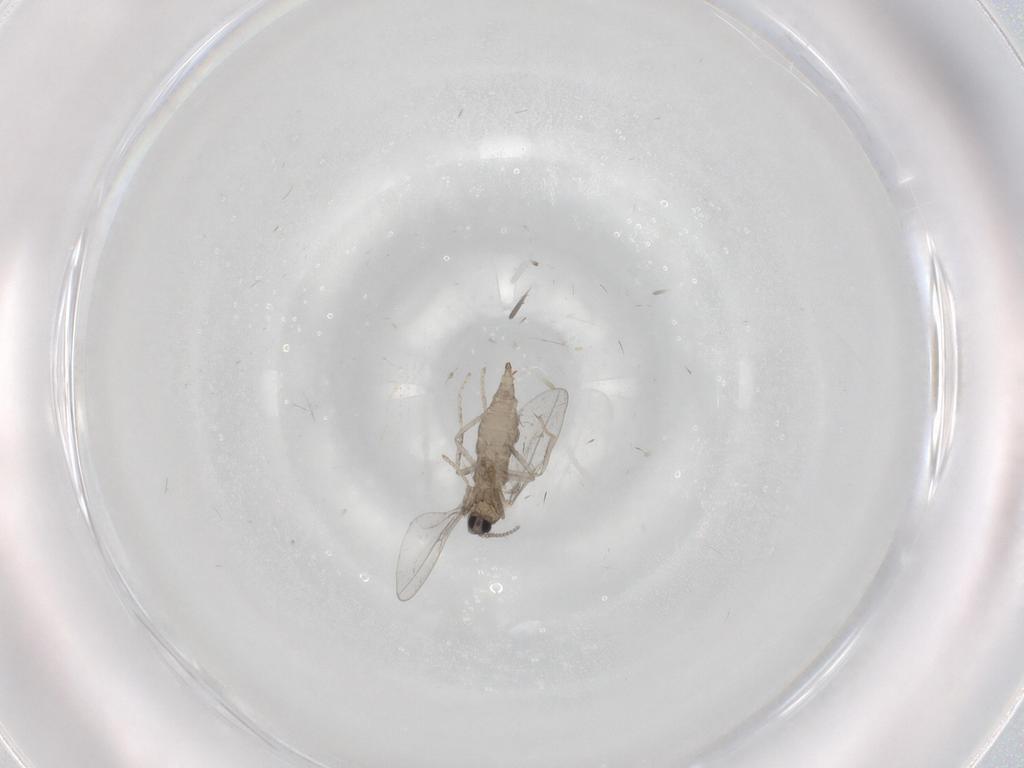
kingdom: Animalia
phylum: Arthropoda
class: Insecta
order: Diptera
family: Cecidomyiidae
